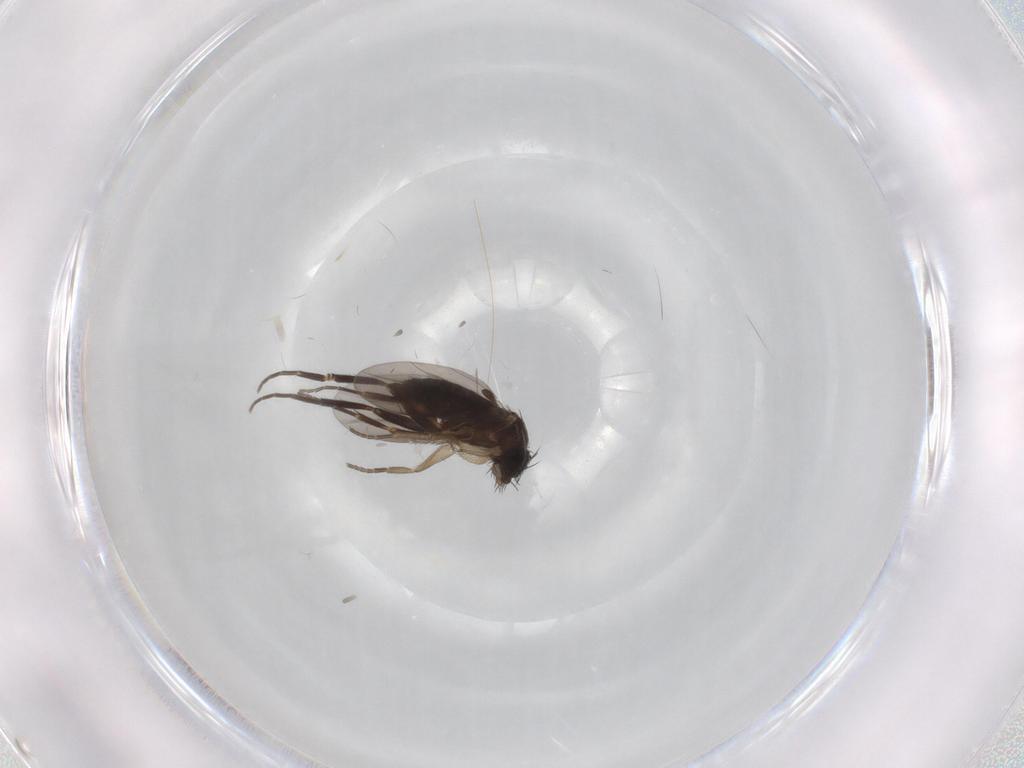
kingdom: Animalia
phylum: Arthropoda
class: Insecta
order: Diptera
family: Phoridae
